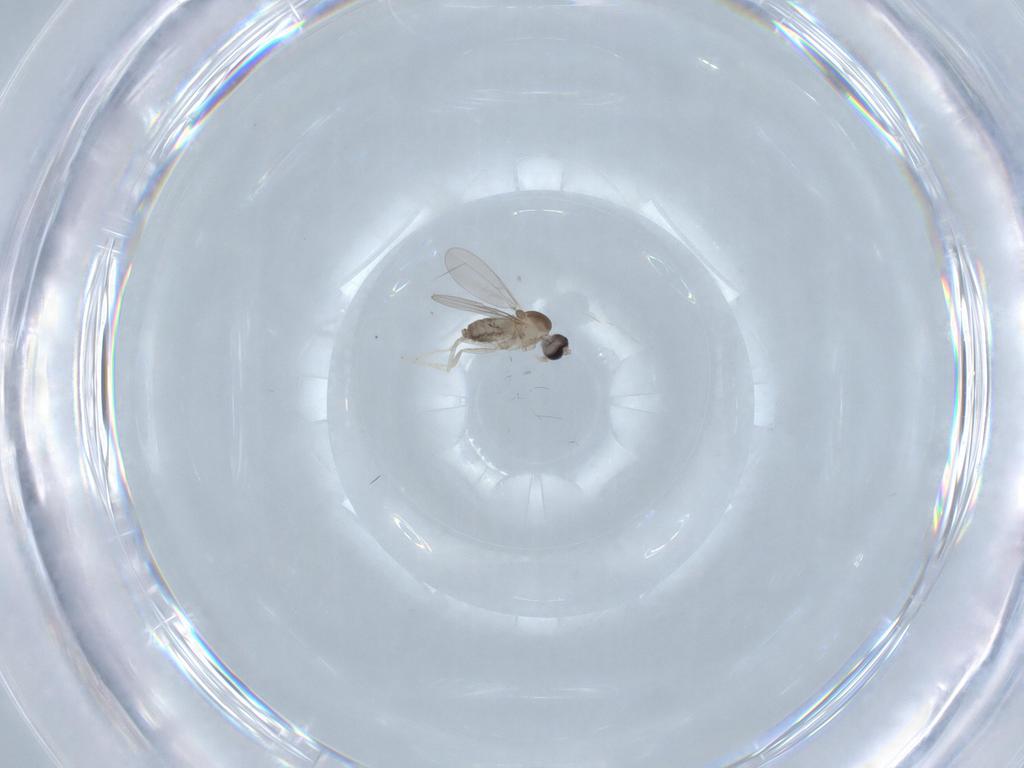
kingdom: Animalia
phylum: Arthropoda
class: Insecta
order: Diptera
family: Cecidomyiidae
